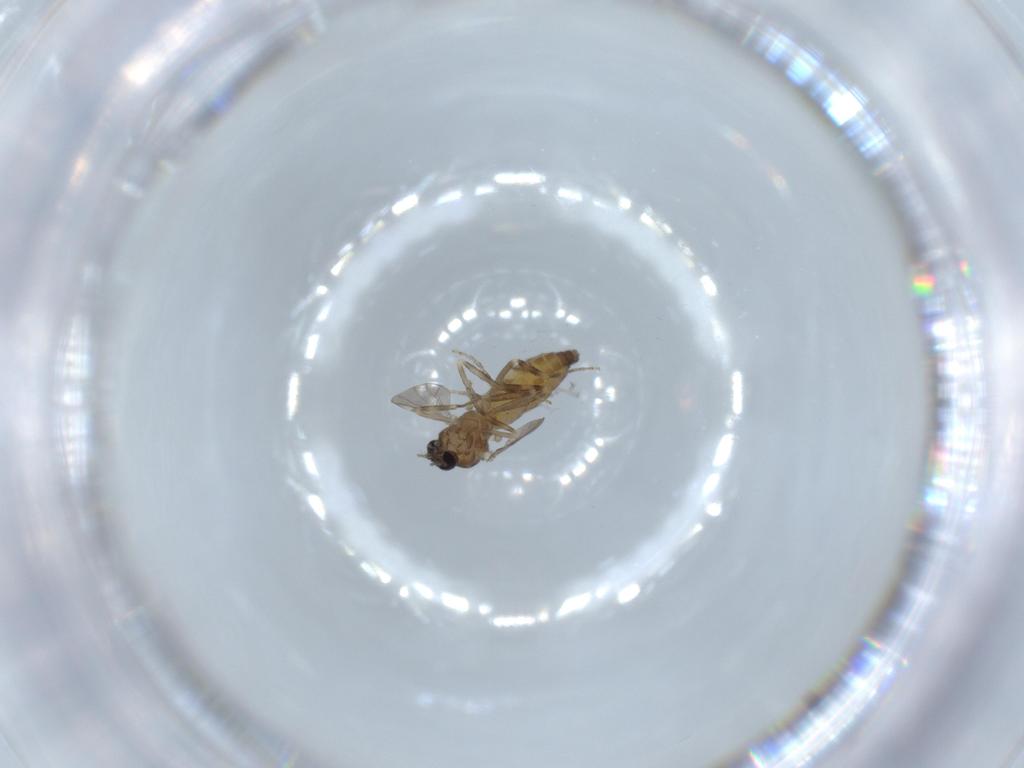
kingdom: Animalia
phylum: Arthropoda
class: Insecta
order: Diptera
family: Ceratopogonidae
